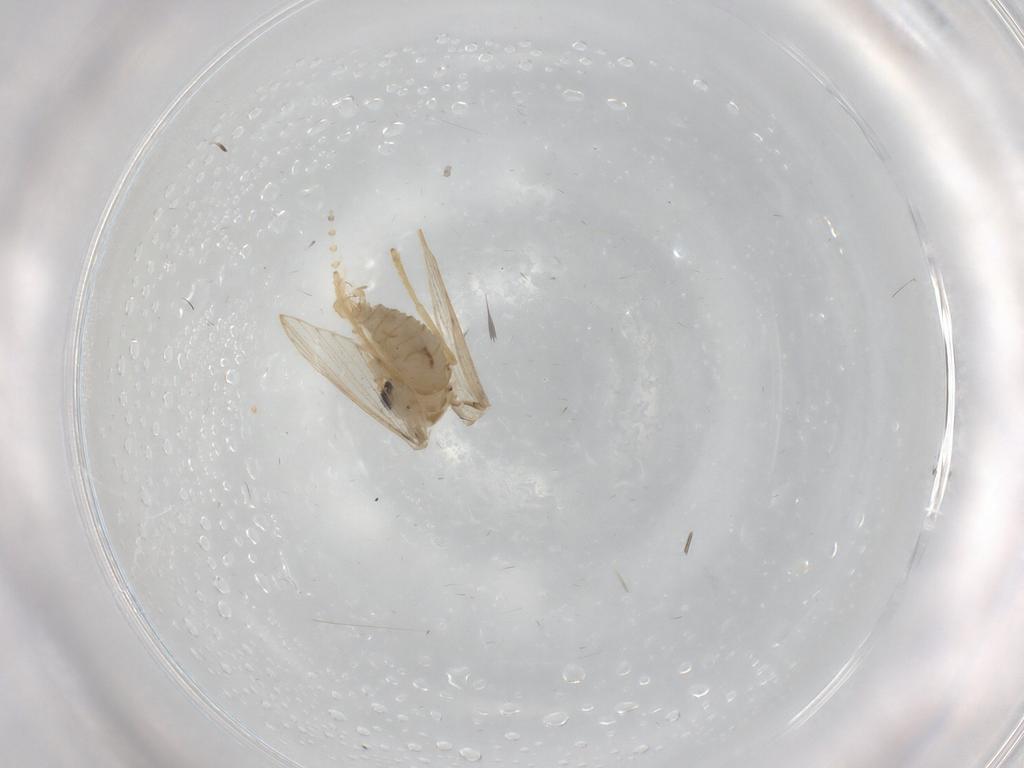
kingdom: Animalia
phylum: Arthropoda
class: Insecta
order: Diptera
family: Psychodidae
